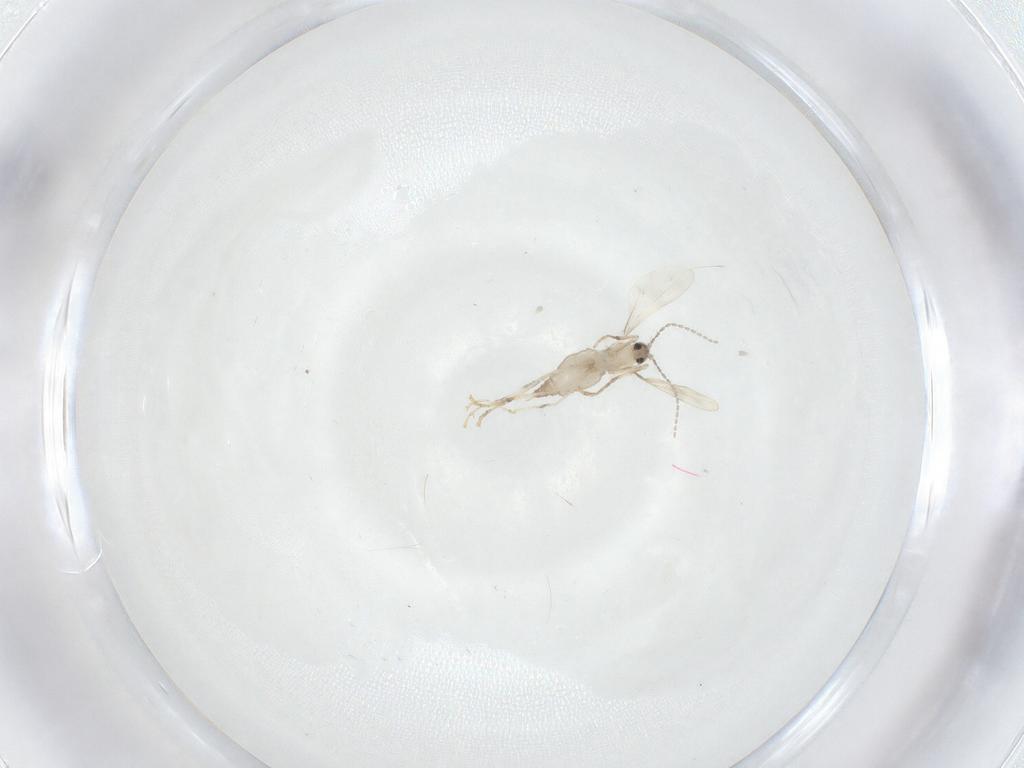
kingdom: Animalia
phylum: Arthropoda
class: Insecta
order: Diptera
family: Cecidomyiidae
